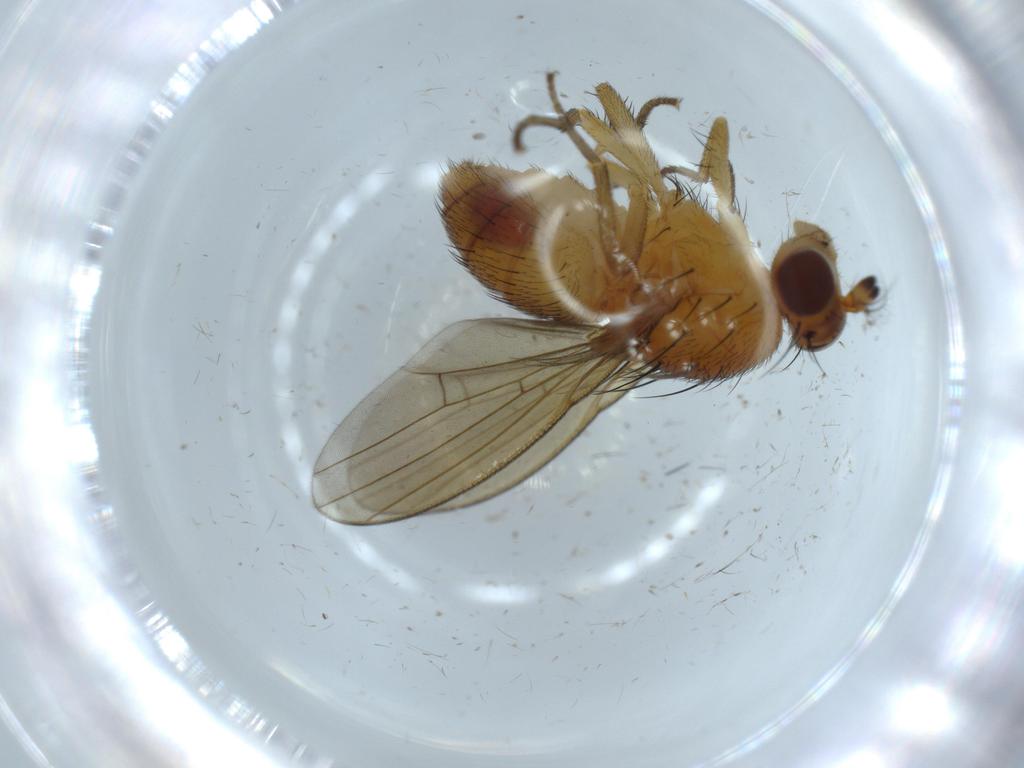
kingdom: Animalia
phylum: Arthropoda
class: Insecta
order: Diptera
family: Lauxaniidae
